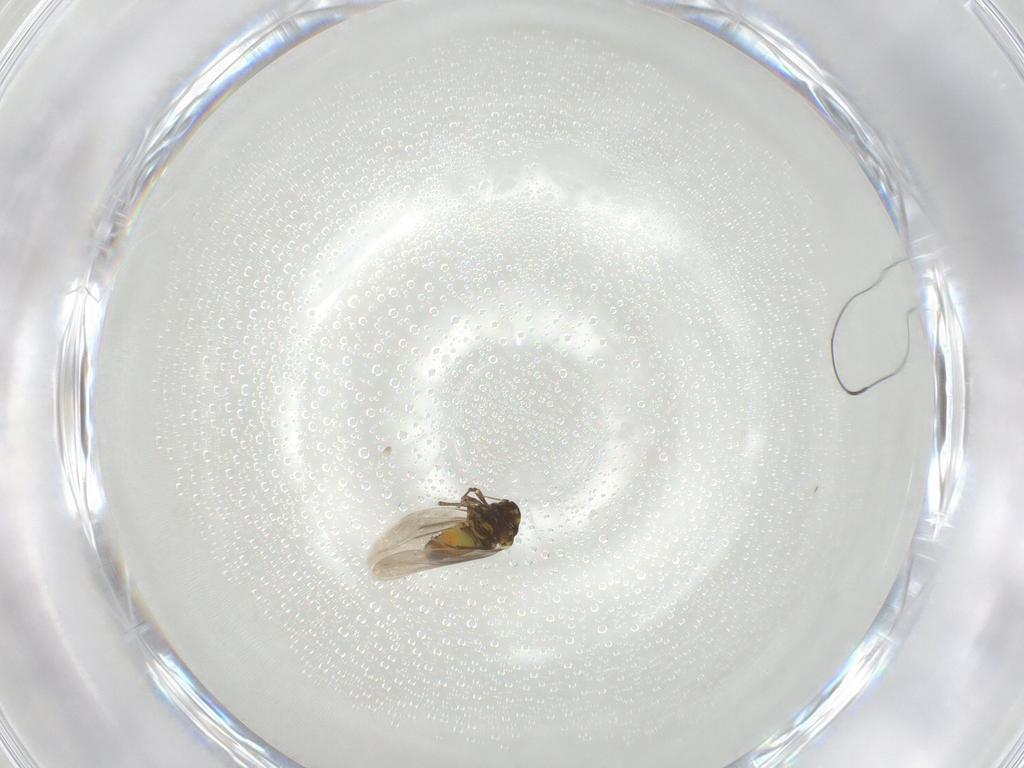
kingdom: Animalia
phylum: Arthropoda
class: Insecta
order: Hemiptera
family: Aleyrodidae
